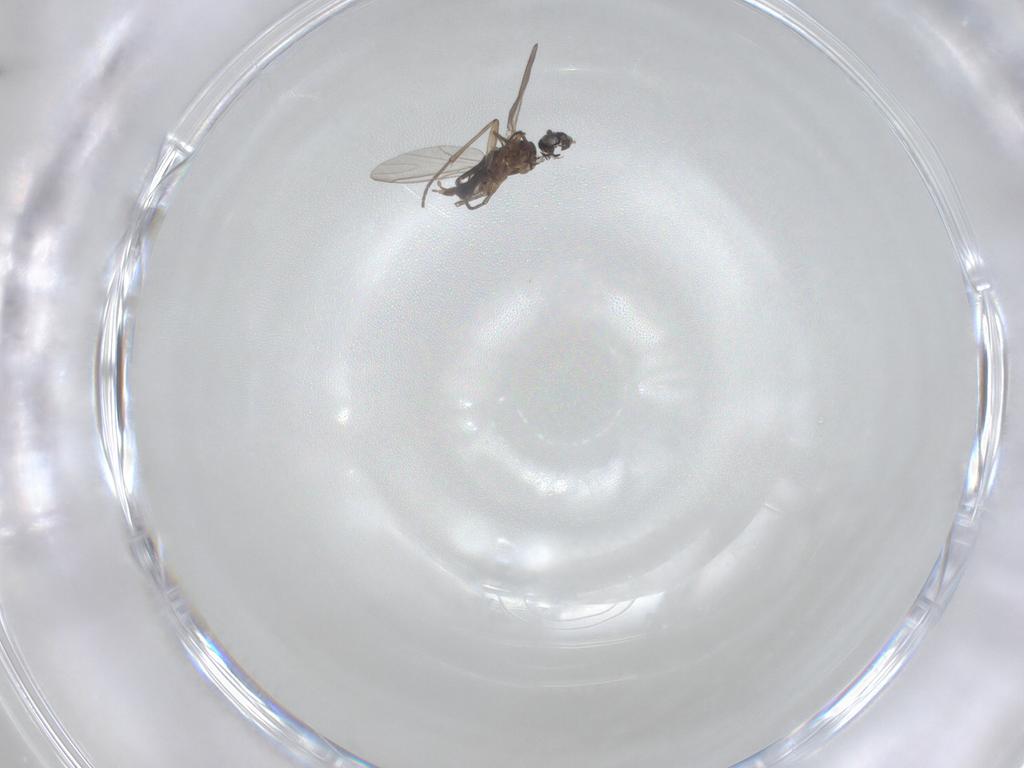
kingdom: Animalia
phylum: Arthropoda
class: Insecta
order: Diptera
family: Sciaridae
